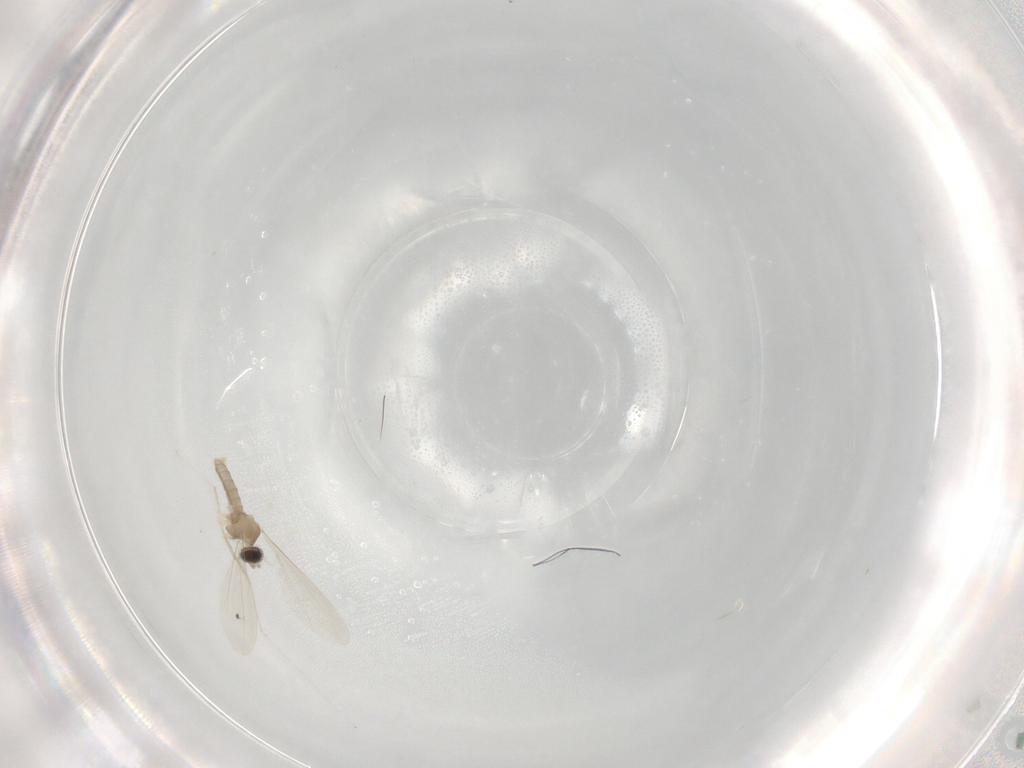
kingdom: Animalia
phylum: Arthropoda
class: Insecta
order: Diptera
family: Cecidomyiidae
